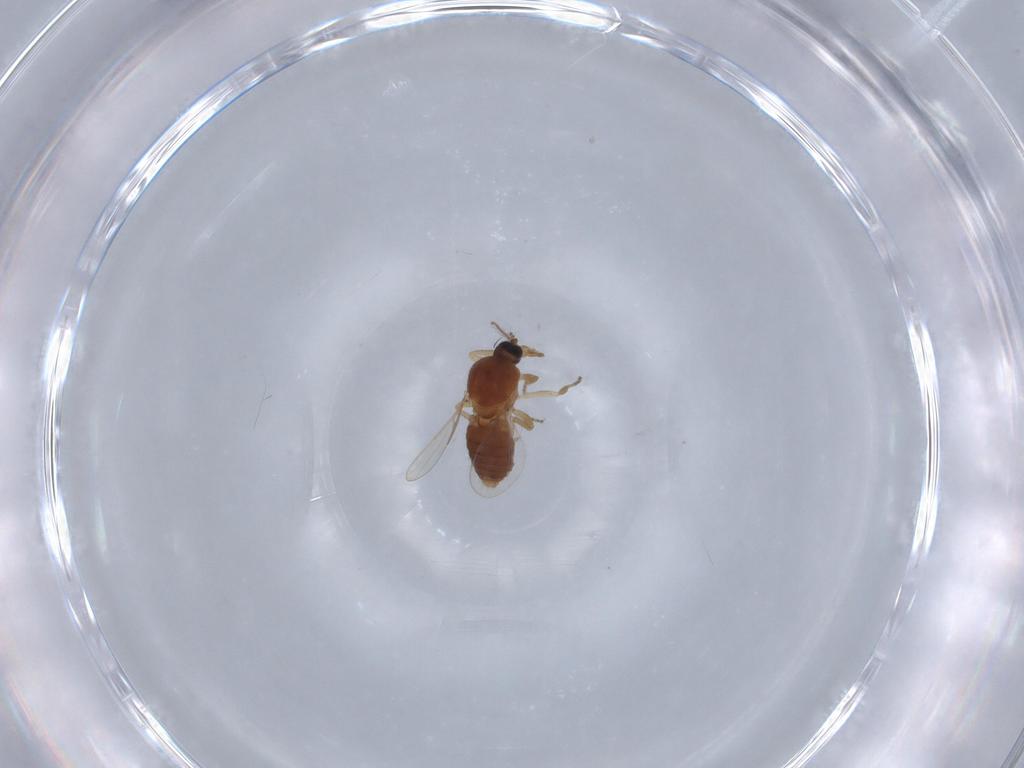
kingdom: Animalia
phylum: Arthropoda
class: Insecta
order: Diptera
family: Ceratopogonidae
